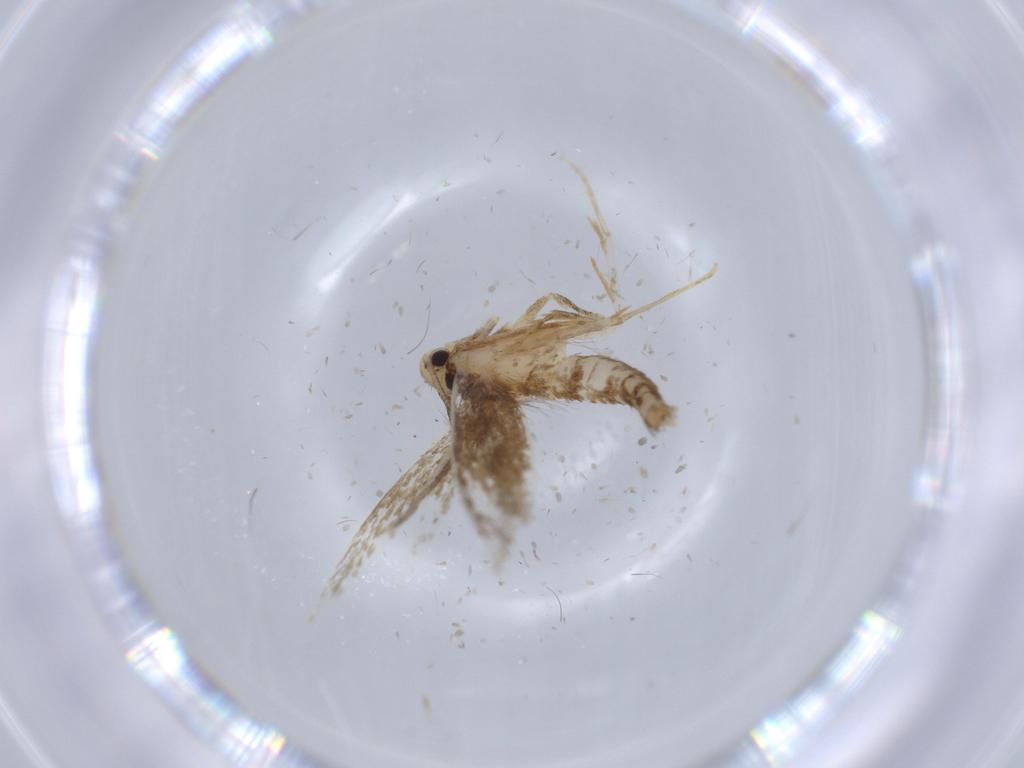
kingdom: Animalia
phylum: Arthropoda
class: Insecta
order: Lepidoptera
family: Tineidae
